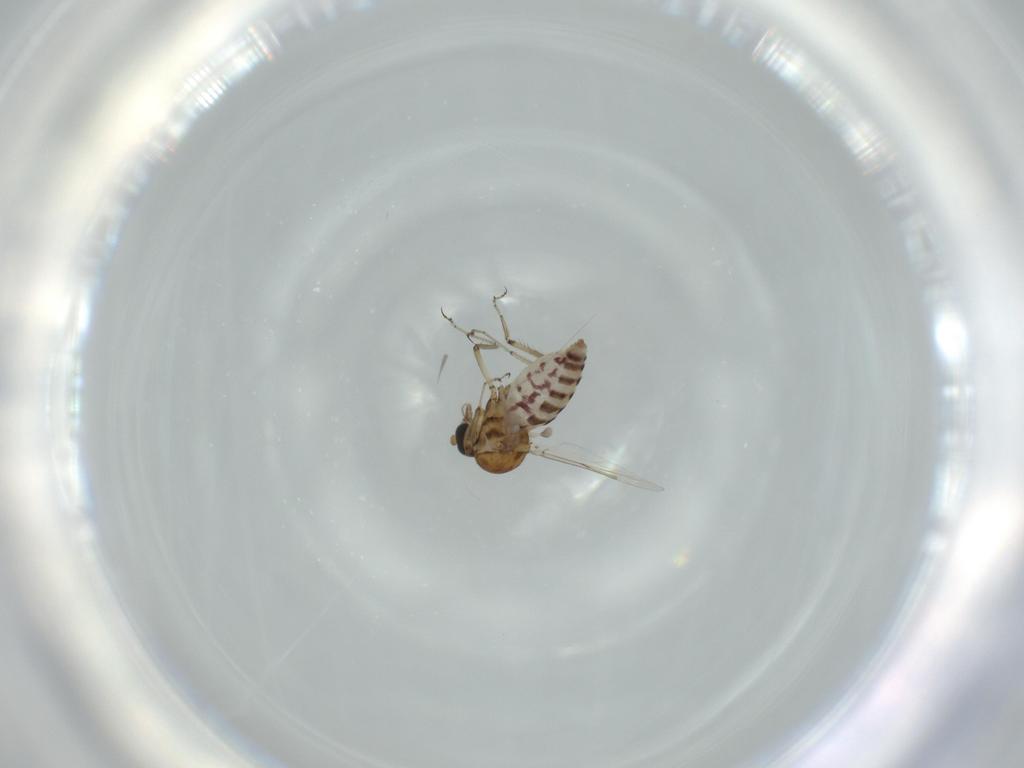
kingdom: Animalia
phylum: Arthropoda
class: Insecta
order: Diptera
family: Ceratopogonidae
